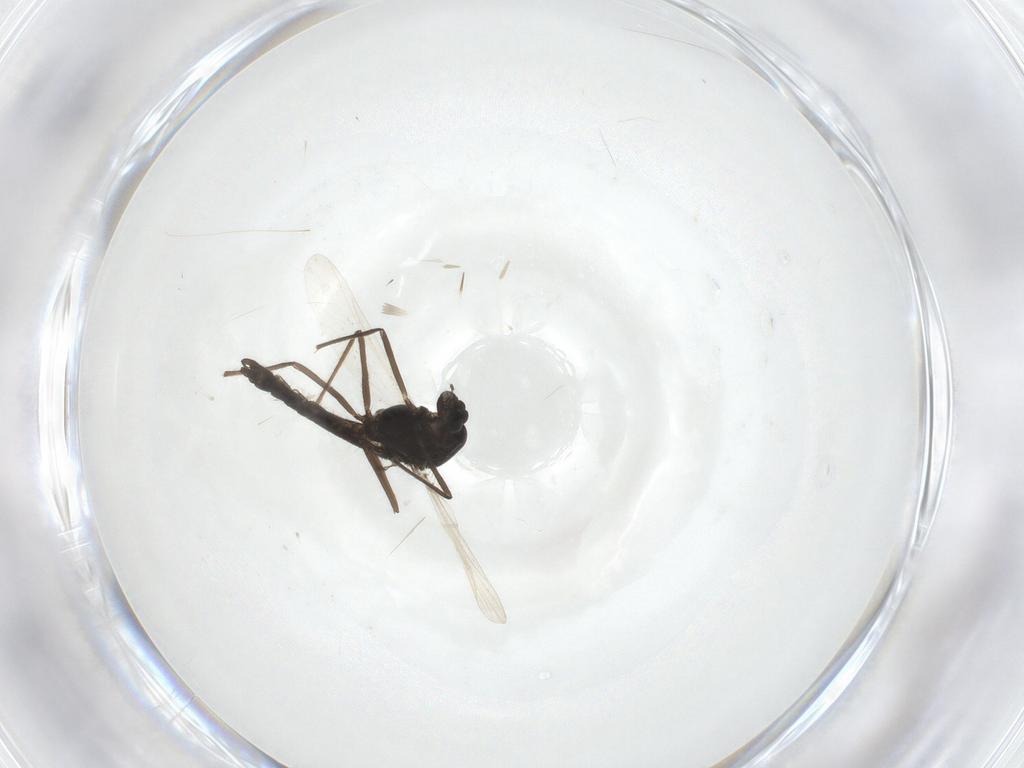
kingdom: Animalia
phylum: Arthropoda
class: Insecta
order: Diptera
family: Chironomidae
